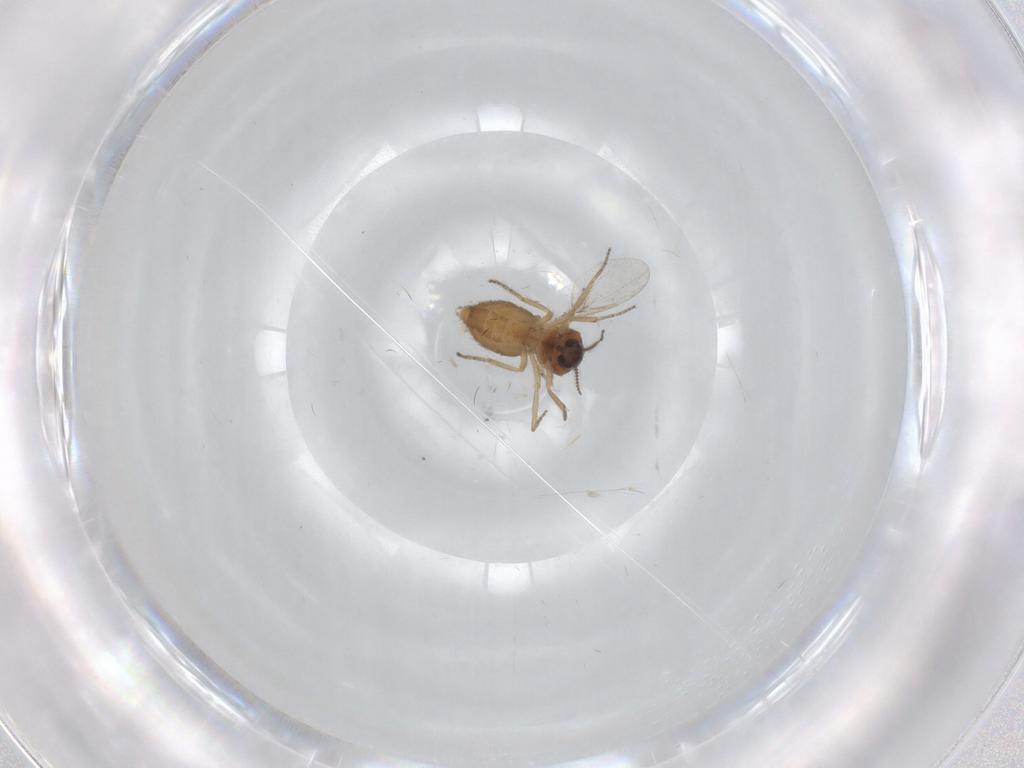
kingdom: Animalia
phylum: Arthropoda
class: Insecta
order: Diptera
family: Ceratopogonidae
